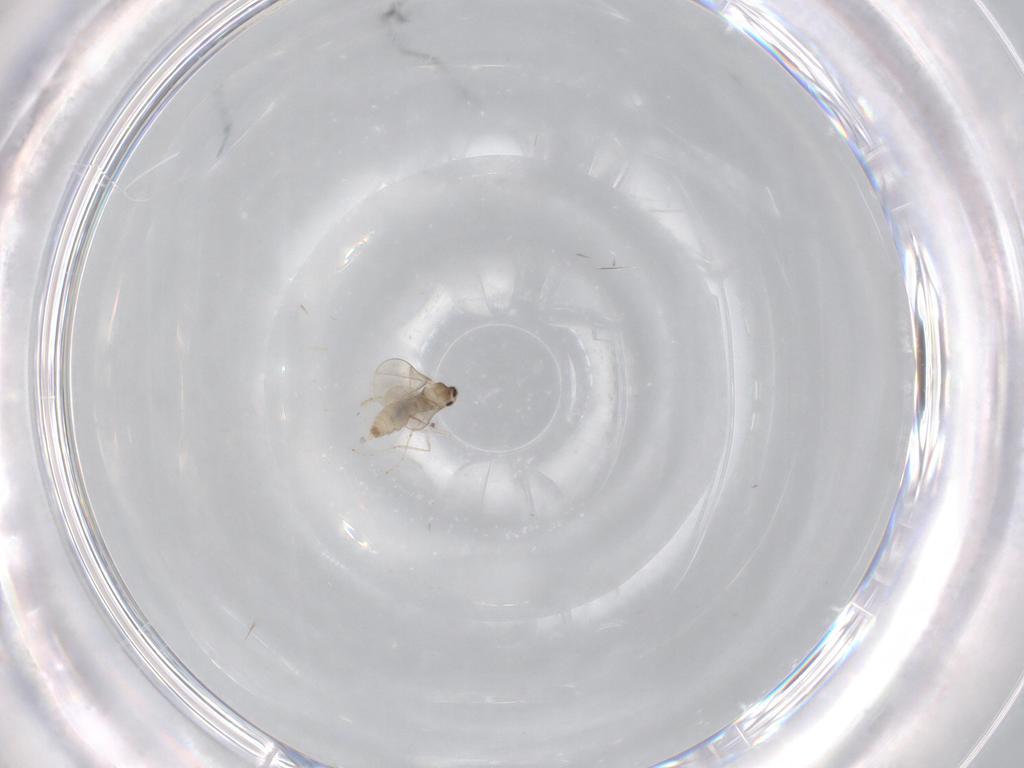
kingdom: Animalia
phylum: Arthropoda
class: Insecta
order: Diptera
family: Cecidomyiidae
